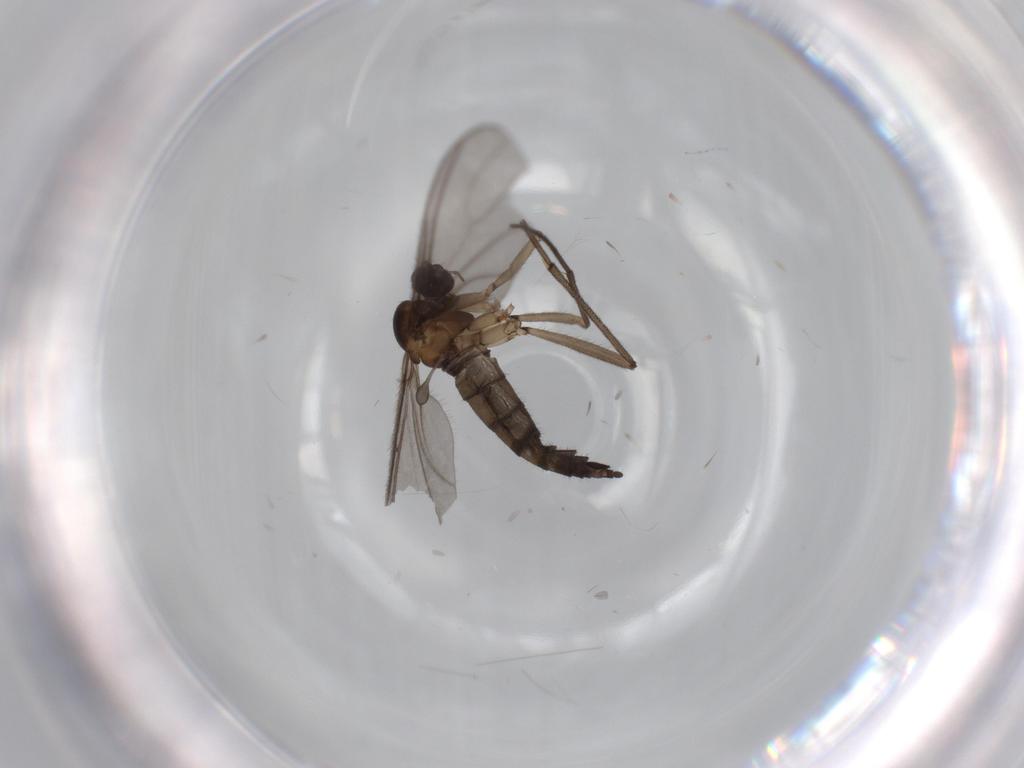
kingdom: Animalia
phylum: Arthropoda
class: Insecta
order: Diptera
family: Sciaridae
